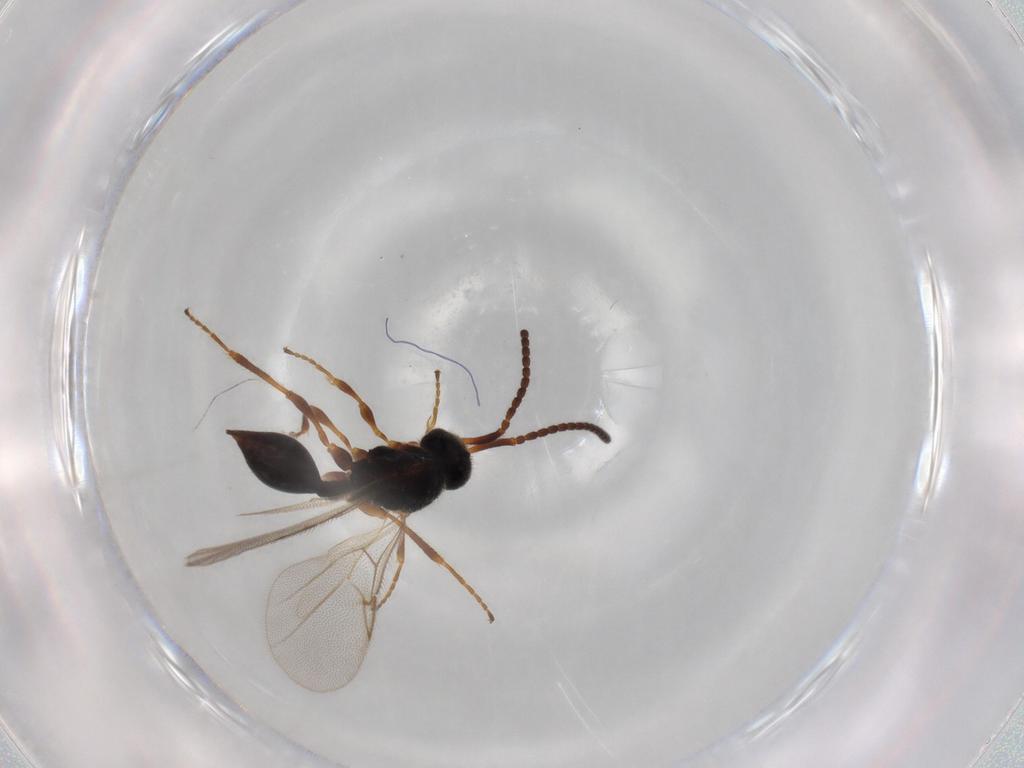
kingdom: Animalia
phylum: Arthropoda
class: Insecta
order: Hymenoptera
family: Diapriidae
